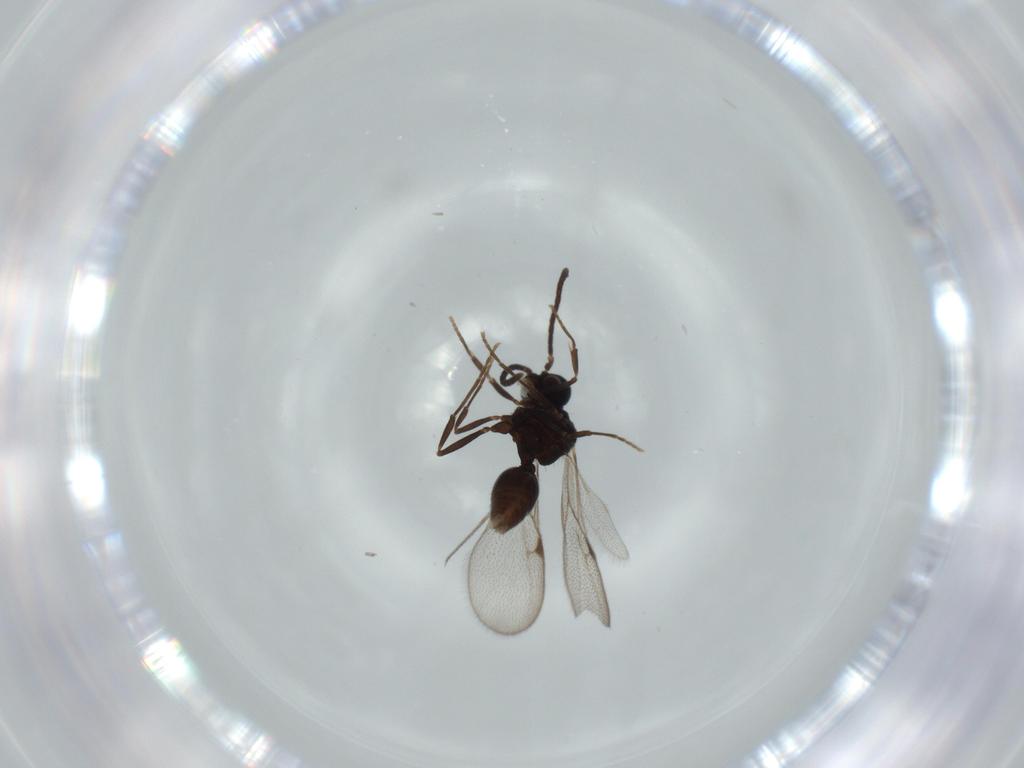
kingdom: Animalia
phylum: Arthropoda
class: Insecta
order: Hymenoptera
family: Formicidae
